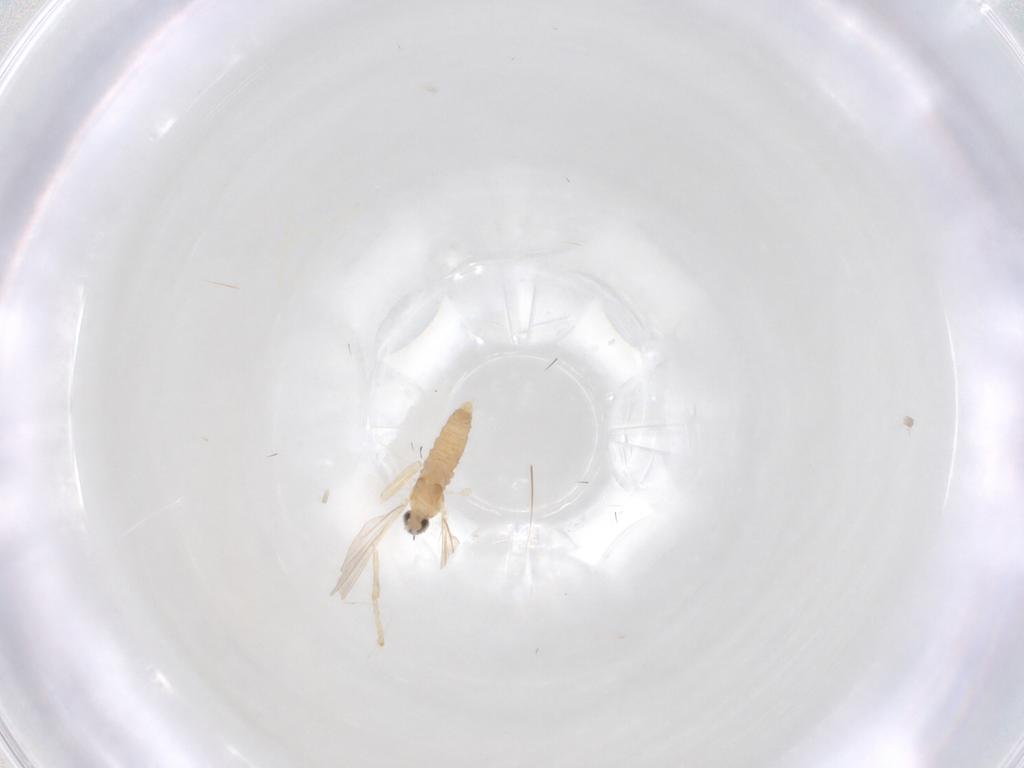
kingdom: Animalia
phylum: Arthropoda
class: Insecta
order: Diptera
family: Cecidomyiidae
